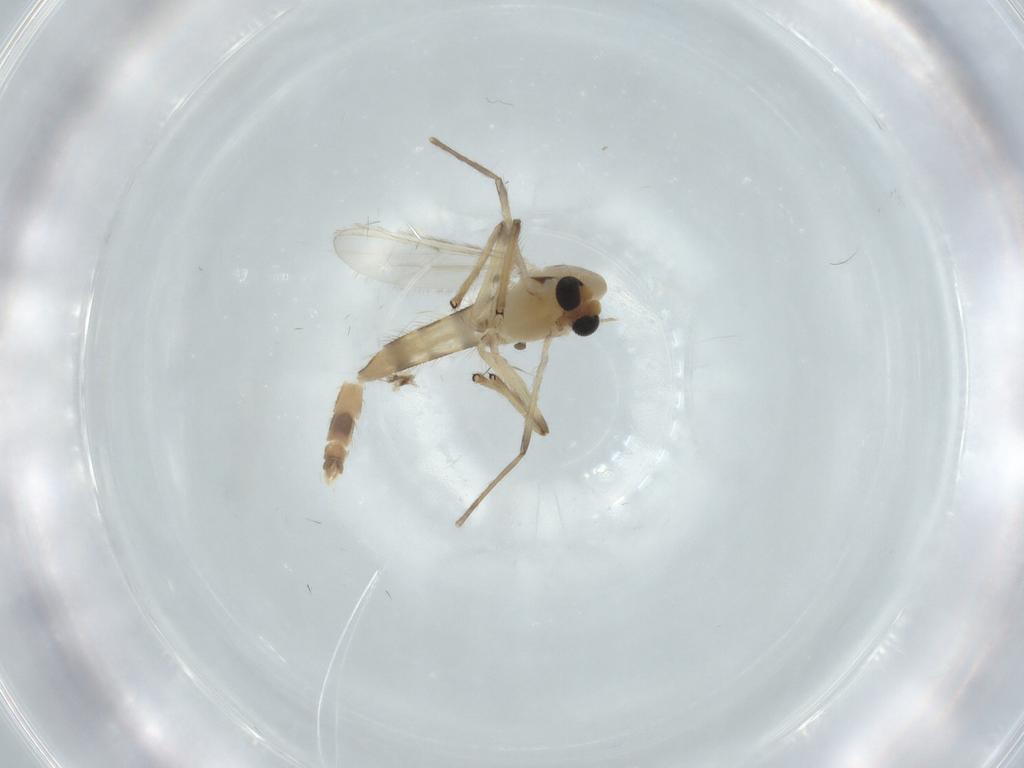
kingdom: Animalia
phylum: Arthropoda
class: Insecta
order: Diptera
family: Chironomidae
